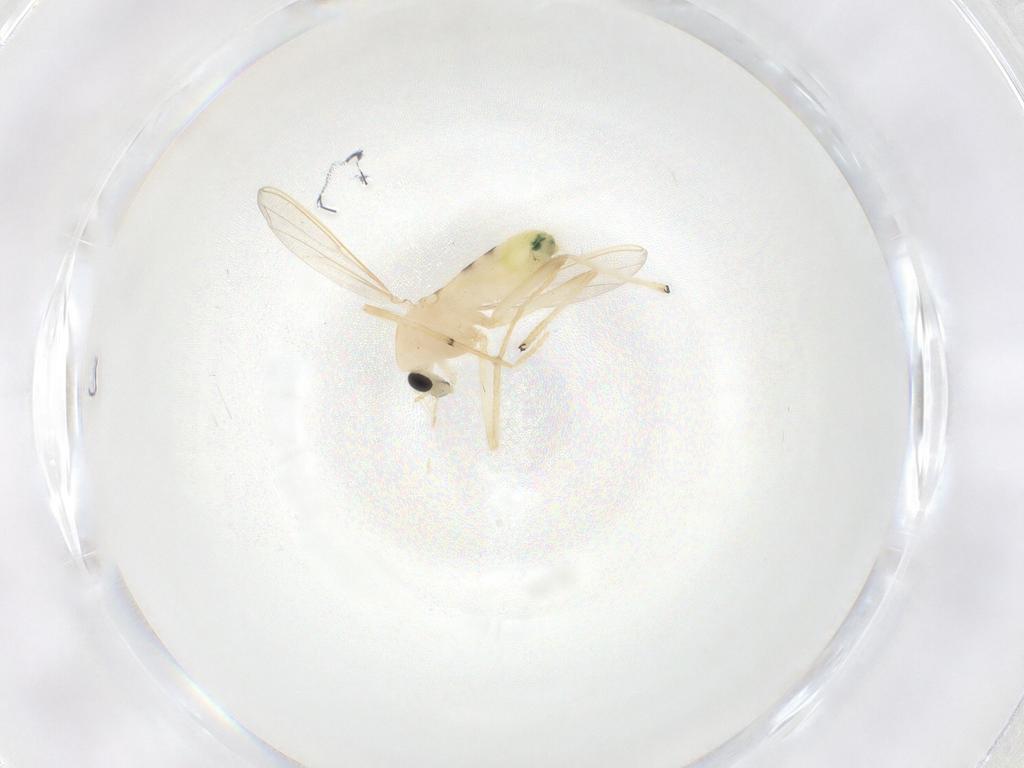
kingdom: Animalia
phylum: Arthropoda
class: Insecta
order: Diptera
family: Chironomidae
